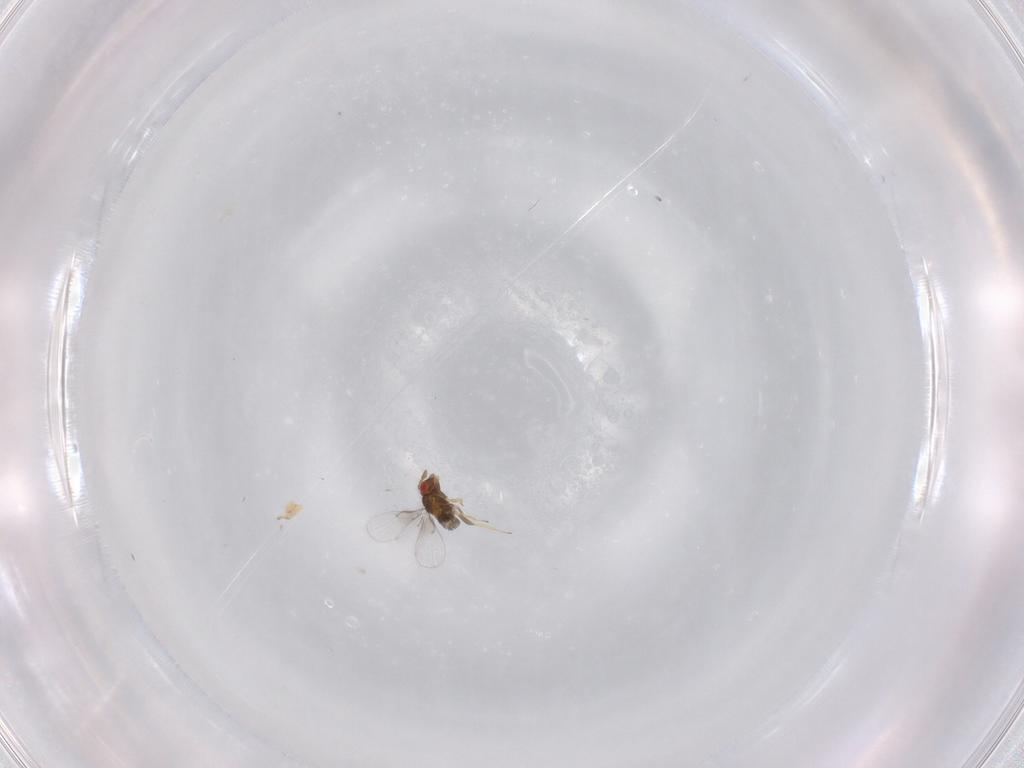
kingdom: Animalia
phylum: Arthropoda
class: Insecta
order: Hymenoptera
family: Trichogrammatidae
